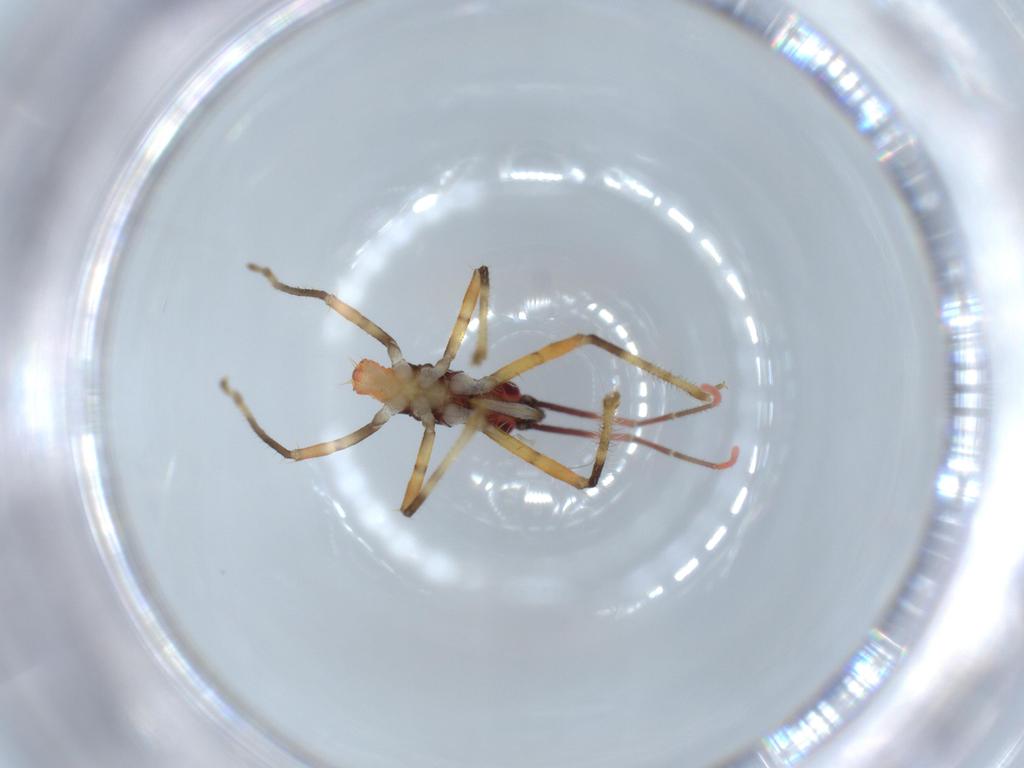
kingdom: Animalia
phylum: Arthropoda
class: Insecta
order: Hemiptera
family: Reduviidae
